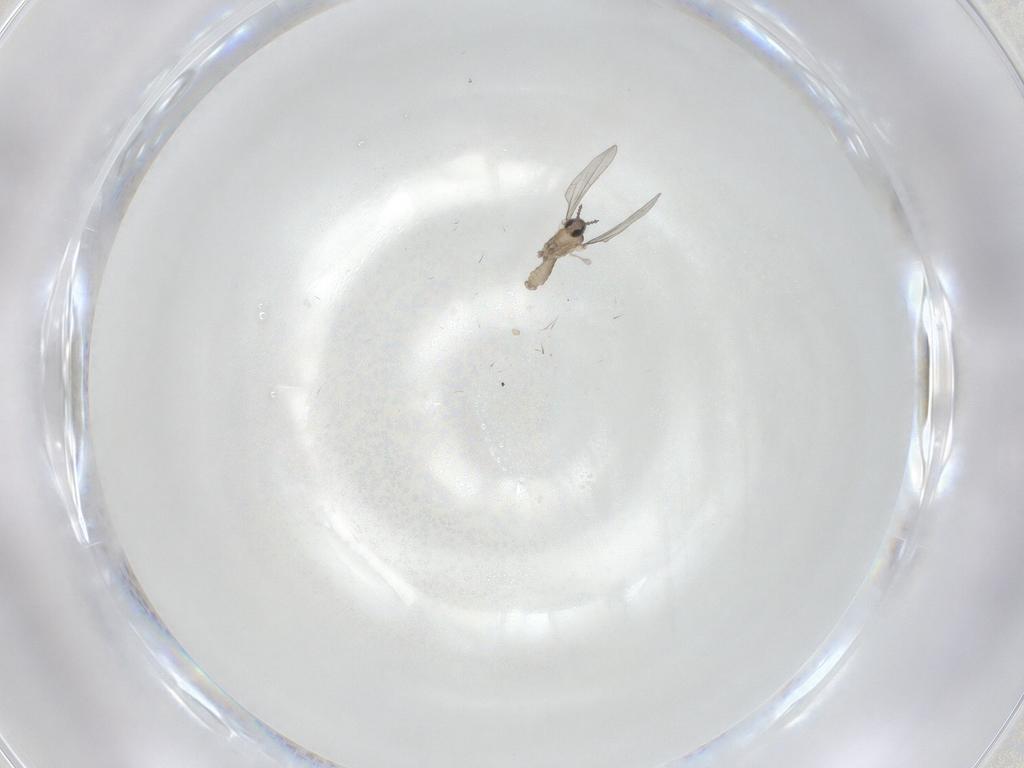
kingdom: Animalia
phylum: Arthropoda
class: Insecta
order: Diptera
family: Cecidomyiidae
